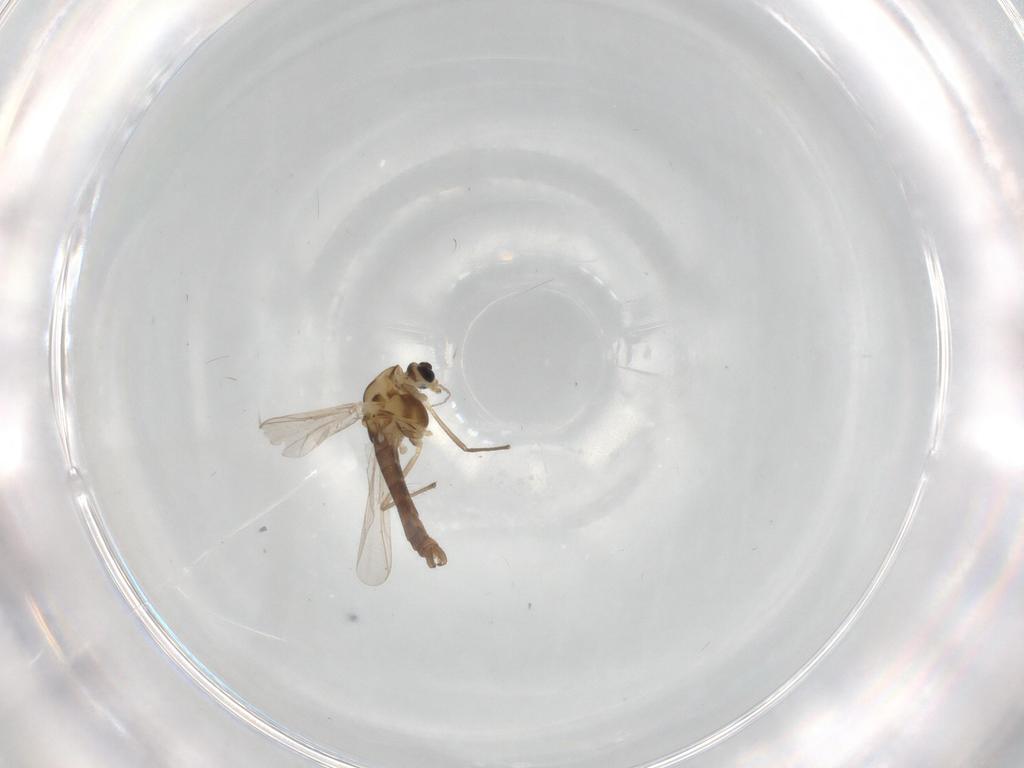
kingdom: Animalia
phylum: Arthropoda
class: Insecta
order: Diptera
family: Chironomidae
